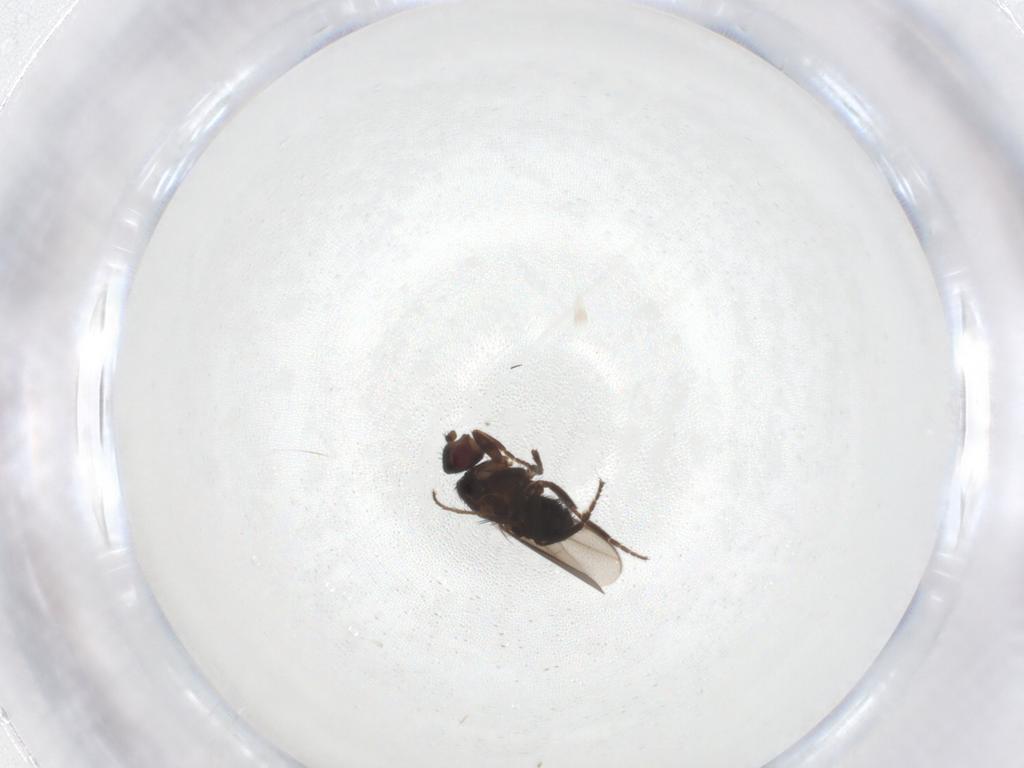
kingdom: Animalia
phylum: Arthropoda
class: Insecta
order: Diptera
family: Sphaeroceridae
